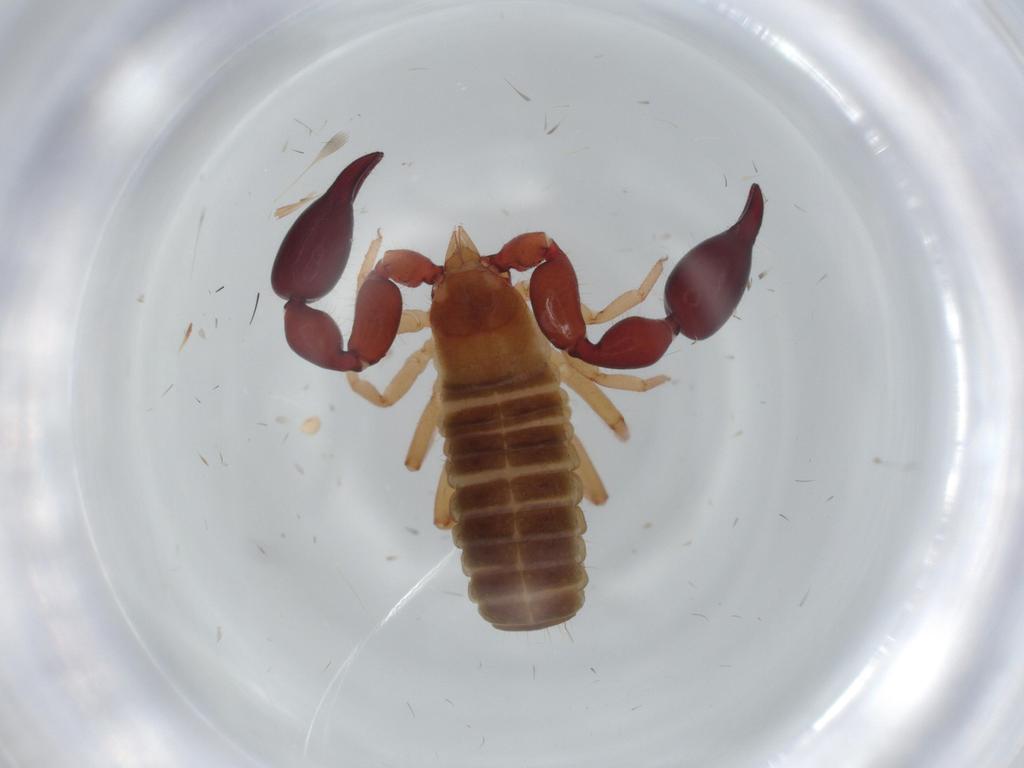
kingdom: Animalia
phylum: Arthropoda
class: Arachnida
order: Pseudoscorpiones
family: Chernetidae
